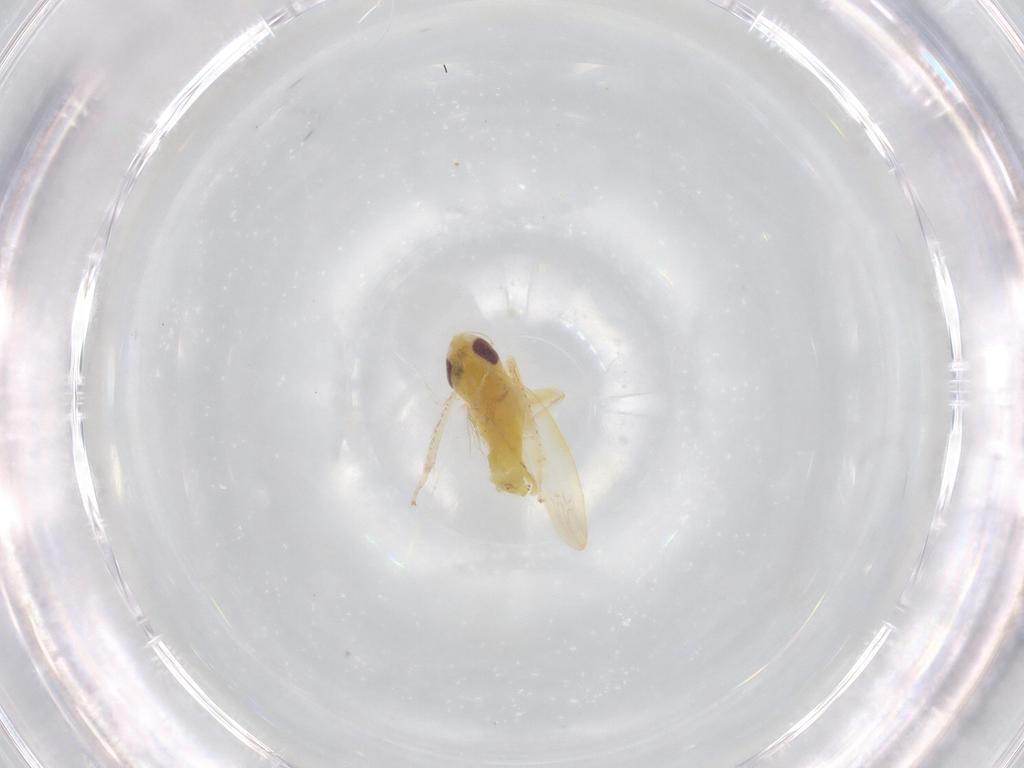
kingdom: Animalia
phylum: Arthropoda
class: Insecta
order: Hemiptera
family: Cicadellidae
